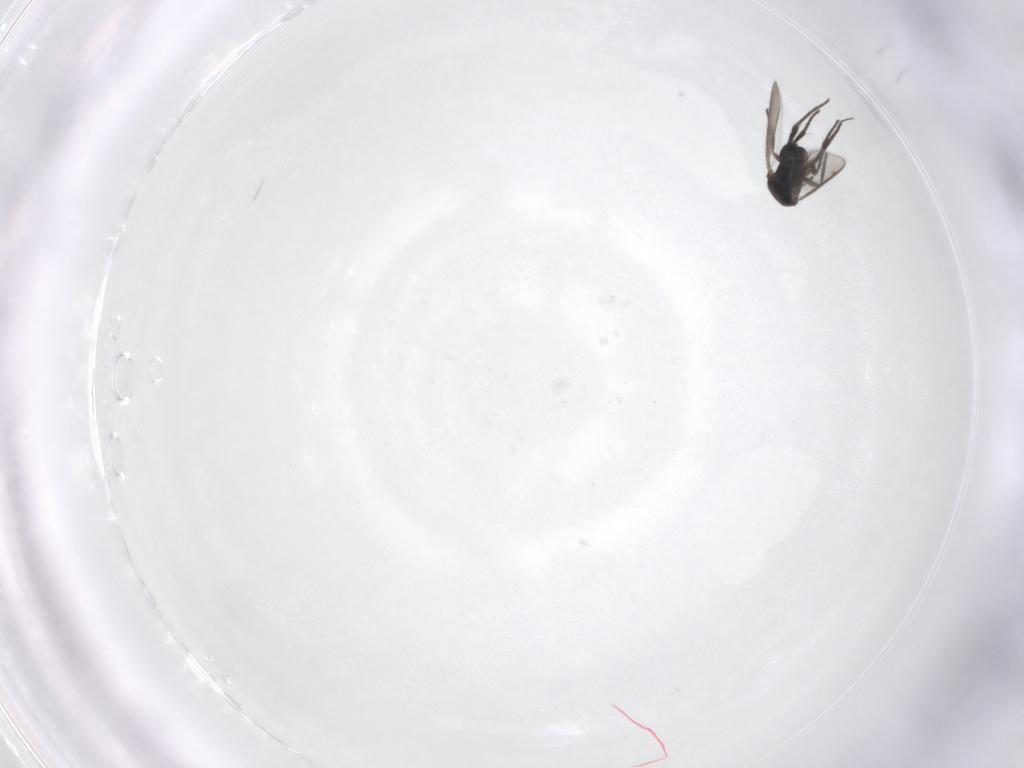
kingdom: Animalia
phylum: Arthropoda
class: Insecta
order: Hymenoptera
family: Eulophidae
